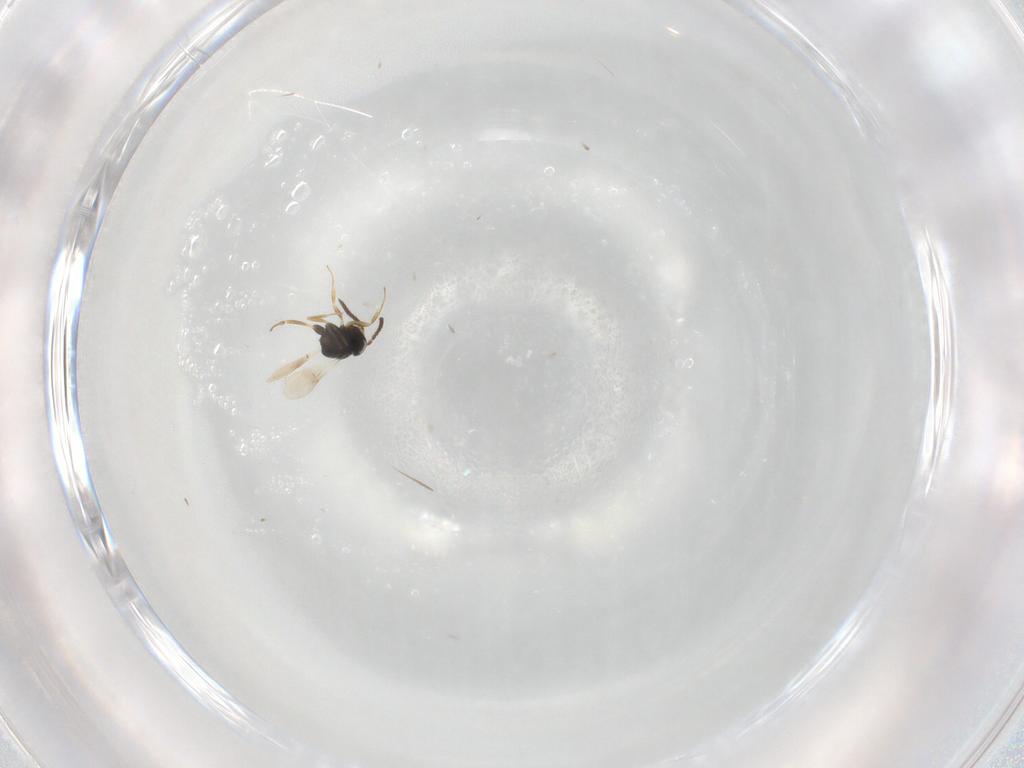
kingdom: Animalia
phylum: Arthropoda
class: Insecta
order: Hymenoptera
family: Scelionidae
